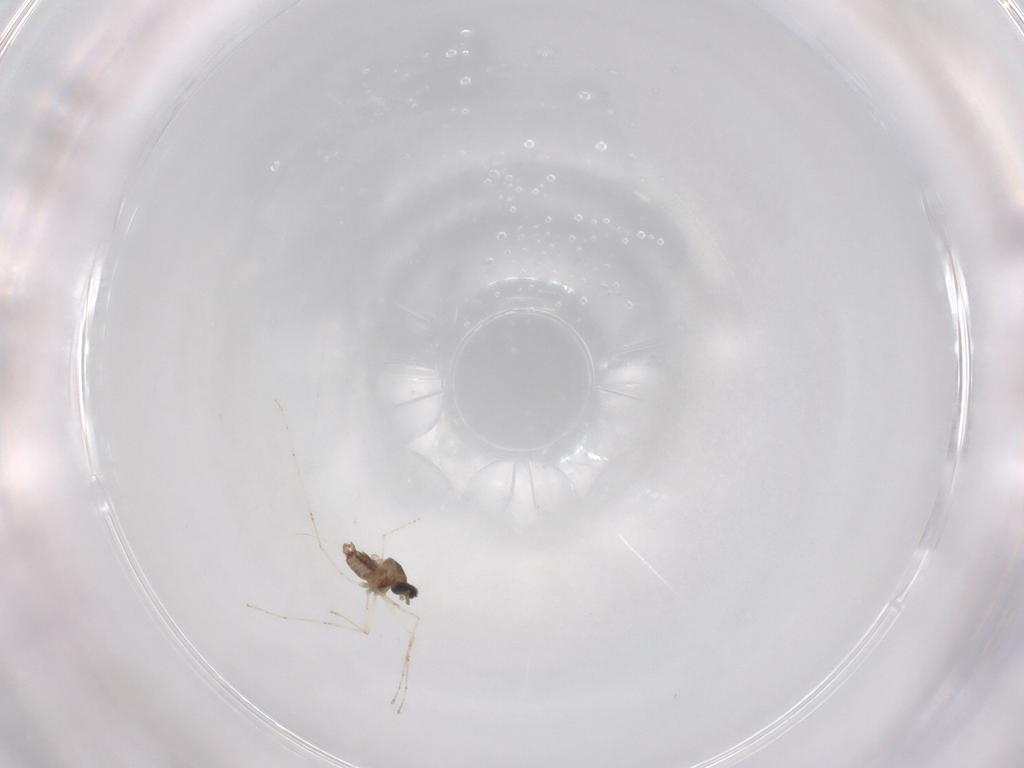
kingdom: Animalia
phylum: Arthropoda
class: Insecta
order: Diptera
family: Cecidomyiidae
